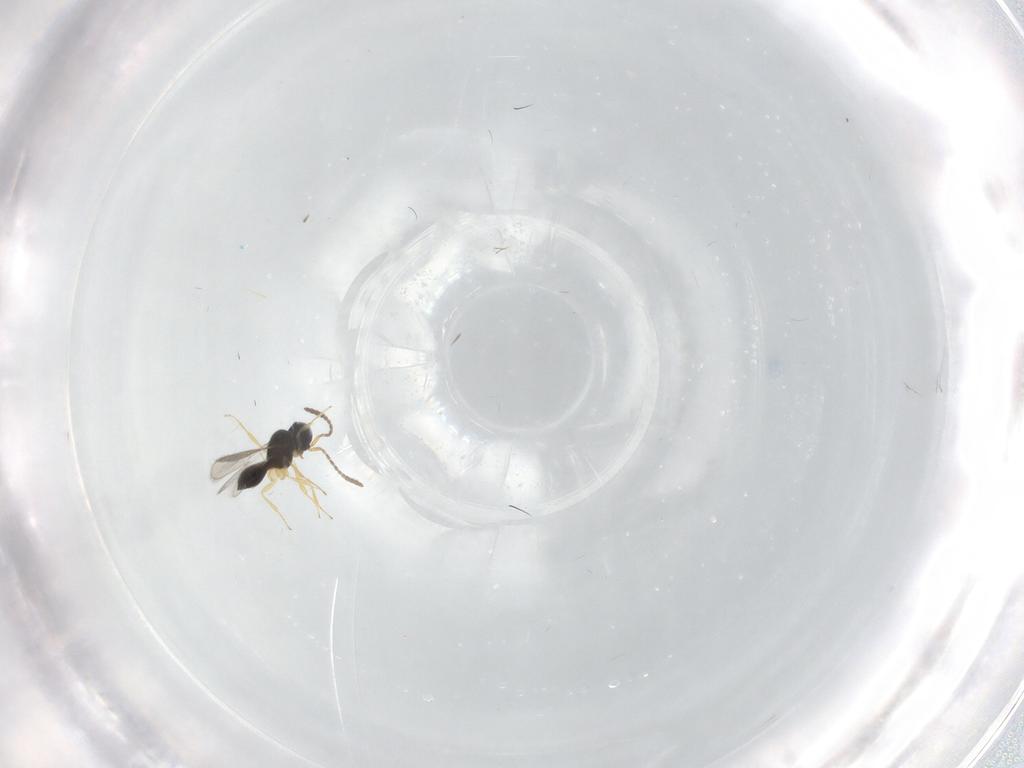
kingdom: Animalia
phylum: Arthropoda
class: Insecta
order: Hymenoptera
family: Scelionidae
